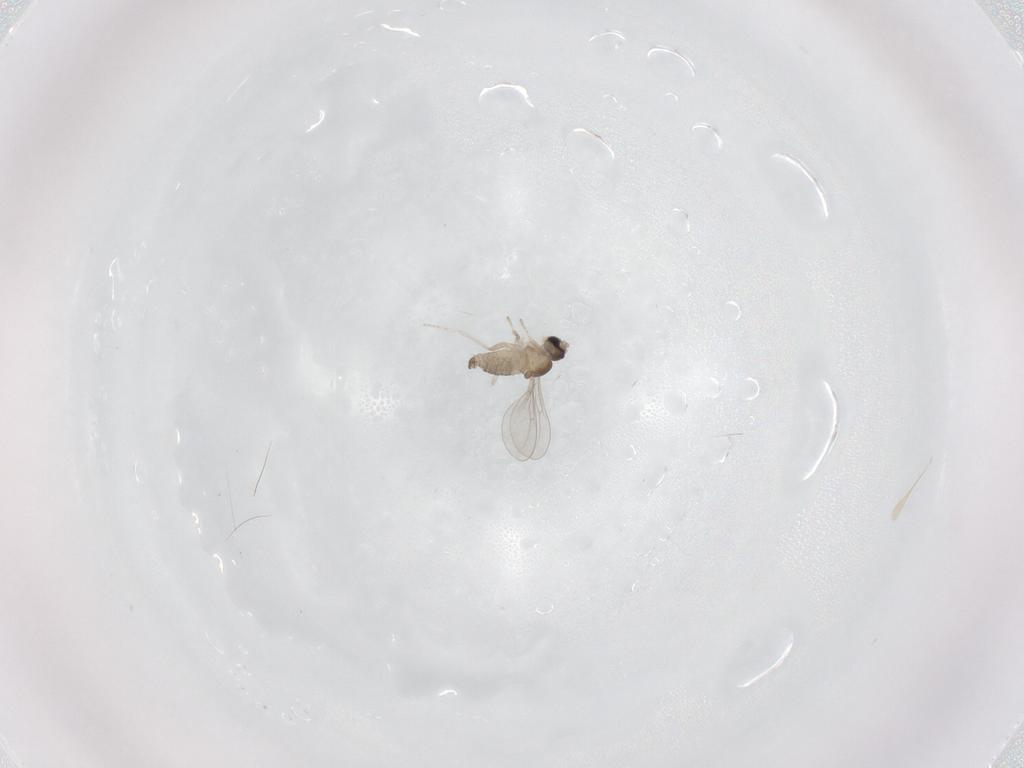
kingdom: Animalia
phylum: Arthropoda
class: Insecta
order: Diptera
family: Cecidomyiidae
